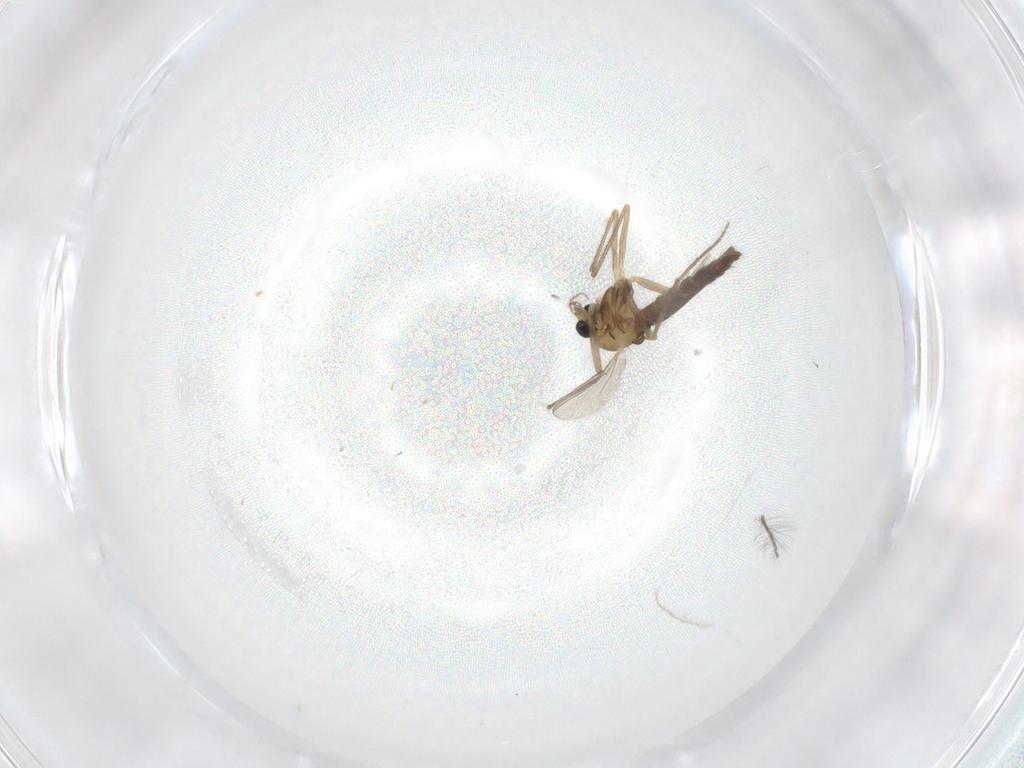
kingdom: Animalia
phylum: Arthropoda
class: Insecta
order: Diptera
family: Chironomidae
